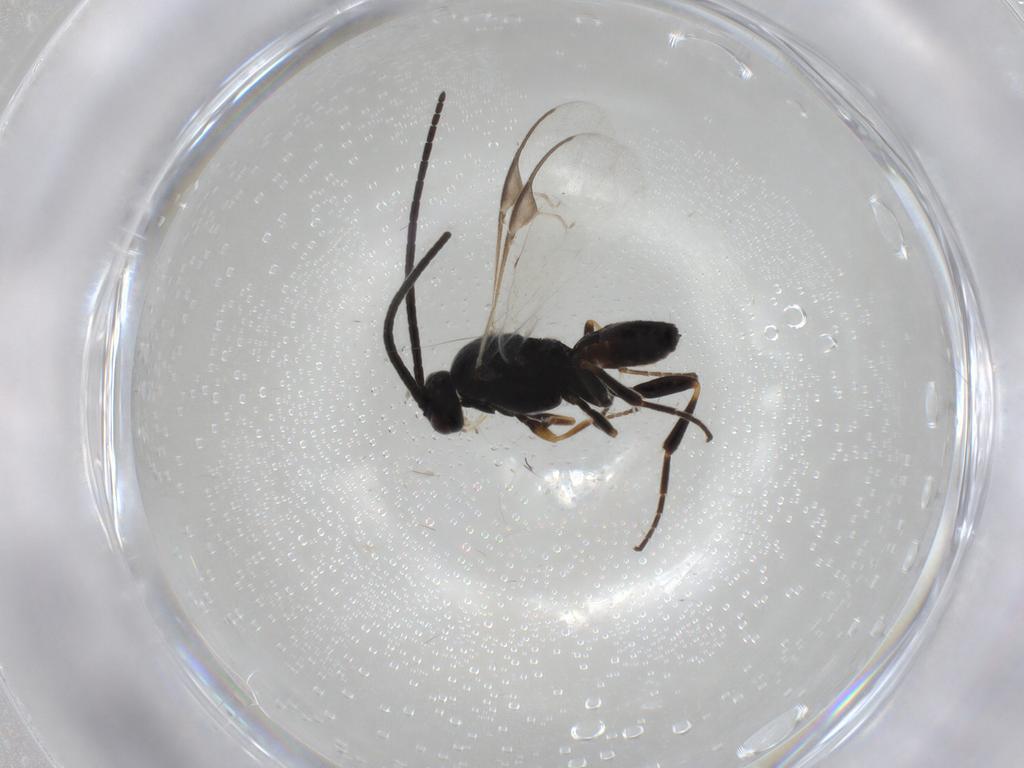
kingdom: Animalia
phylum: Arthropoda
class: Insecta
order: Hymenoptera
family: Braconidae
